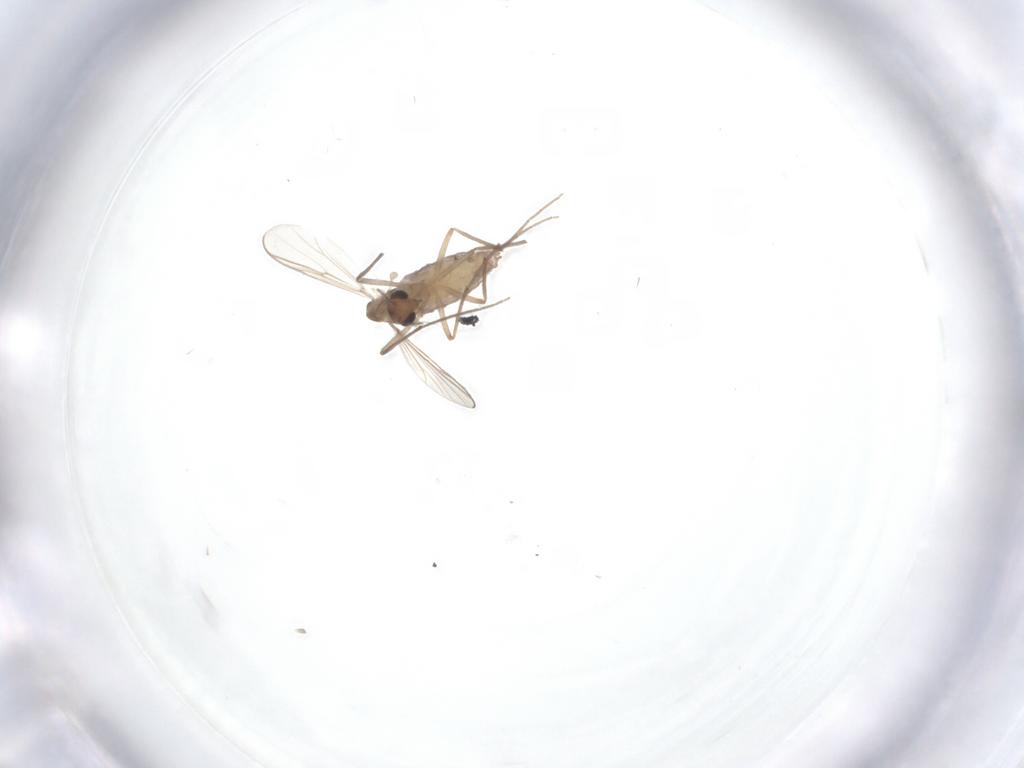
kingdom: Animalia
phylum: Arthropoda
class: Insecta
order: Diptera
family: Chironomidae
